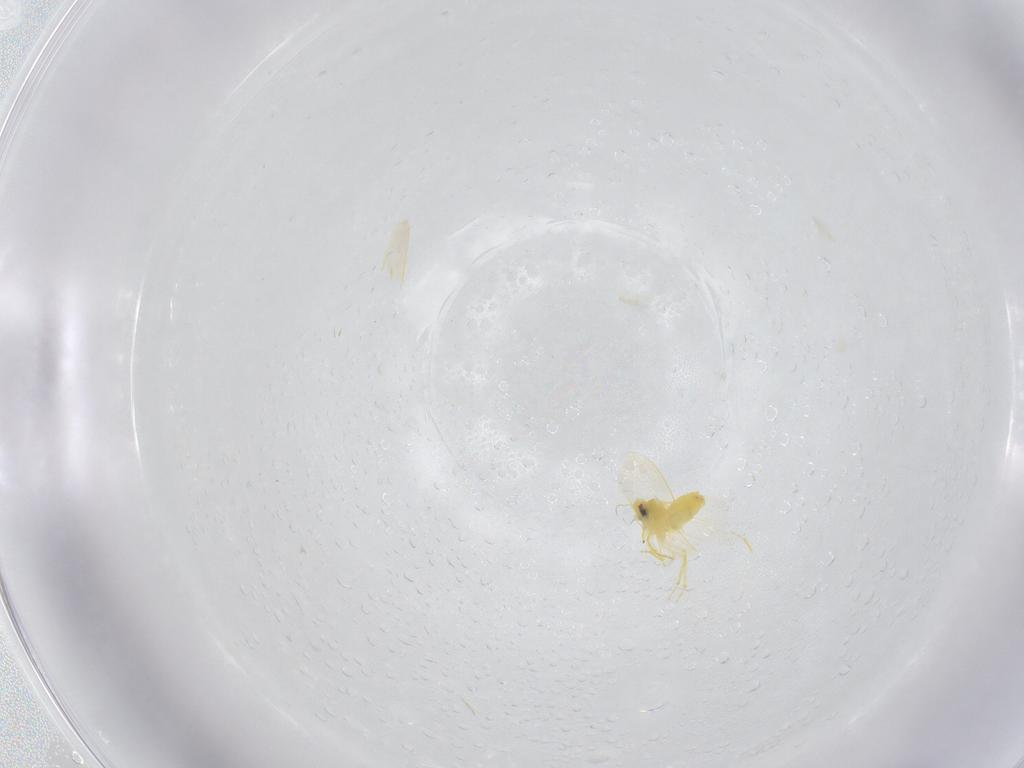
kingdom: Animalia
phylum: Arthropoda
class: Insecta
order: Hemiptera
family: Aleyrodidae
